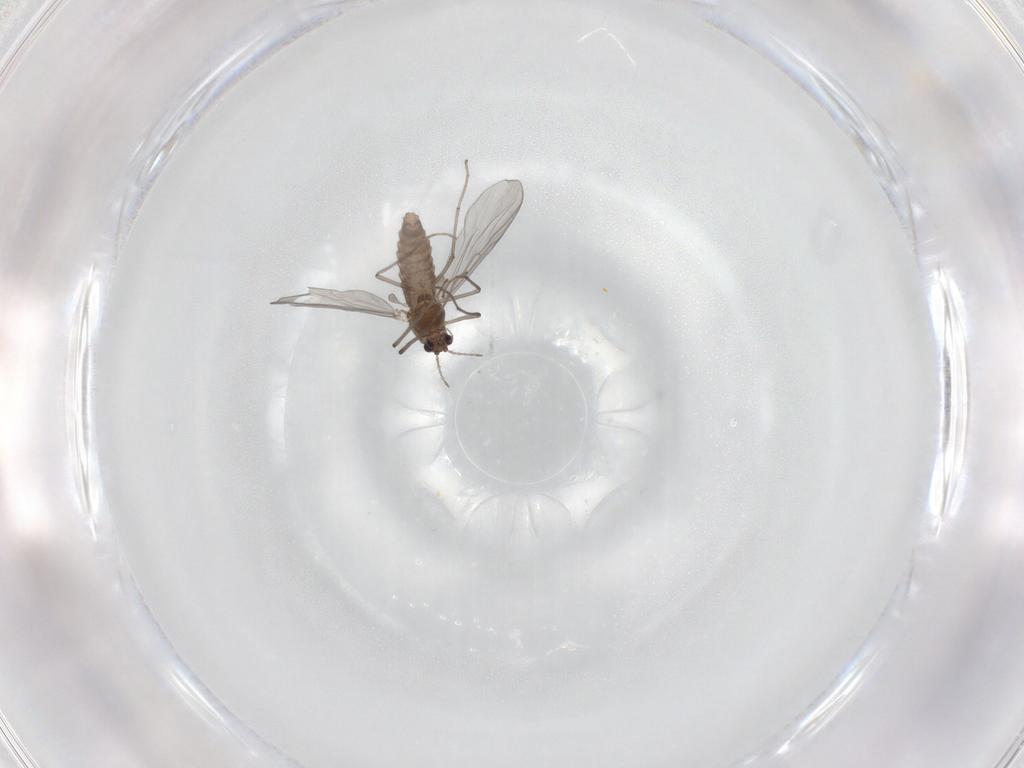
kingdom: Animalia
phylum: Arthropoda
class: Insecta
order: Diptera
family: Chironomidae
